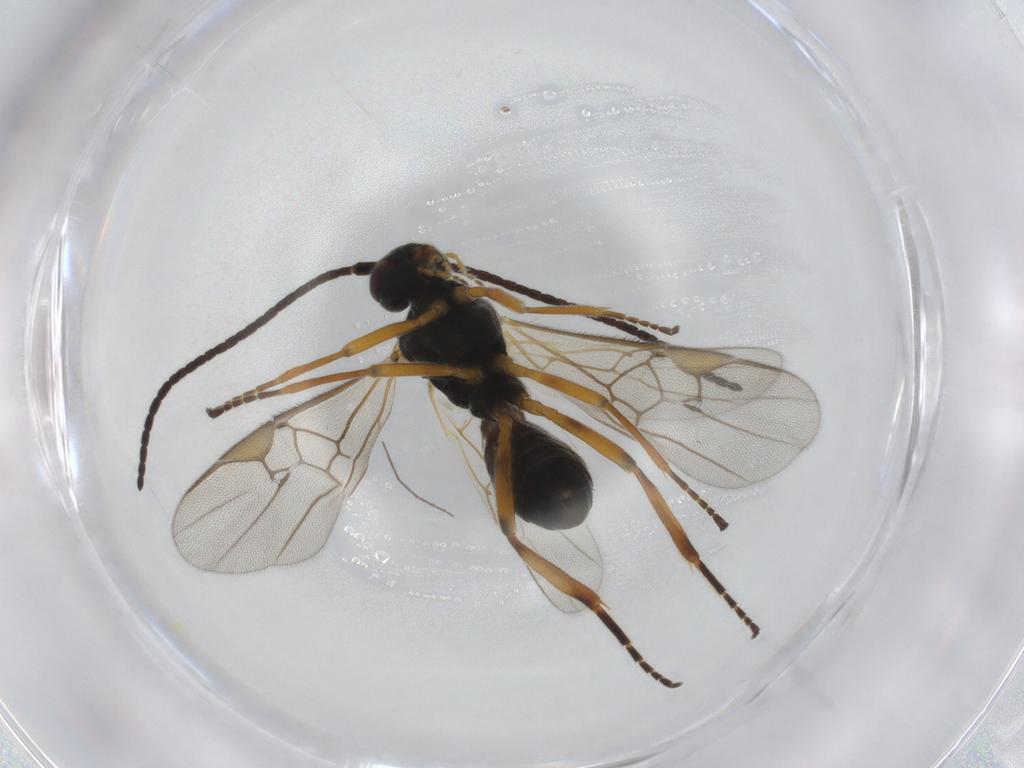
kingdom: Animalia
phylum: Arthropoda
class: Insecta
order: Hymenoptera
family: Braconidae
